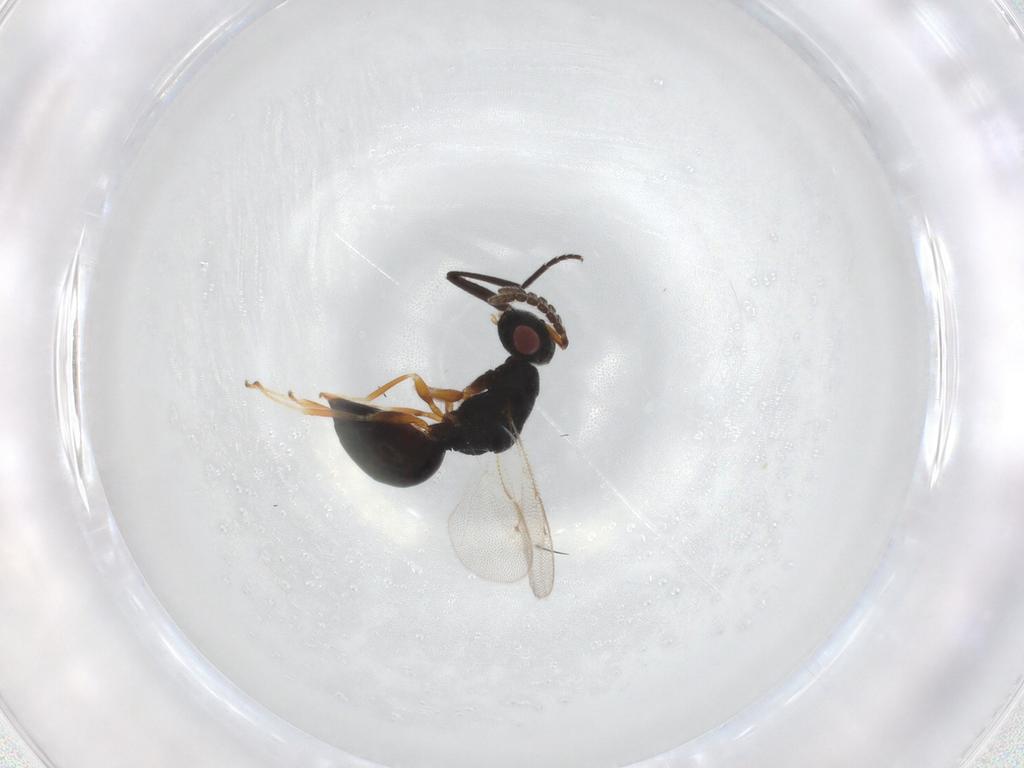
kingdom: Animalia
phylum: Arthropoda
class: Insecta
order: Hymenoptera
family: Eurytomidae
